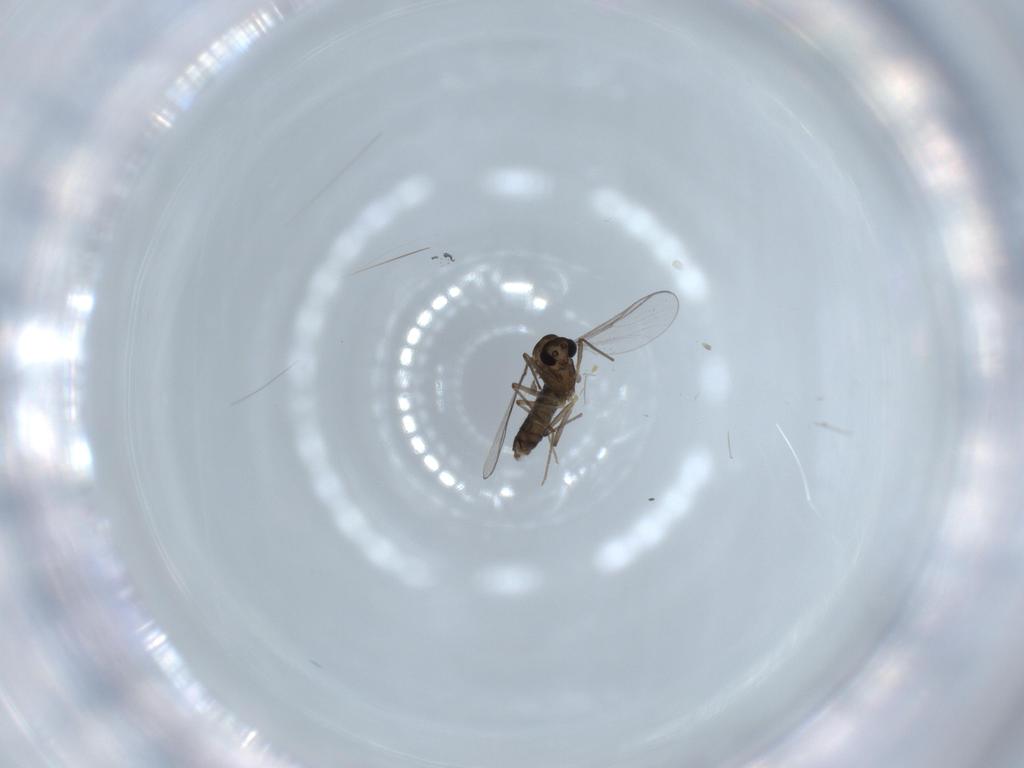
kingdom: Animalia
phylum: Arthropoda
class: Insecta
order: Diptera
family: Chironomidae
